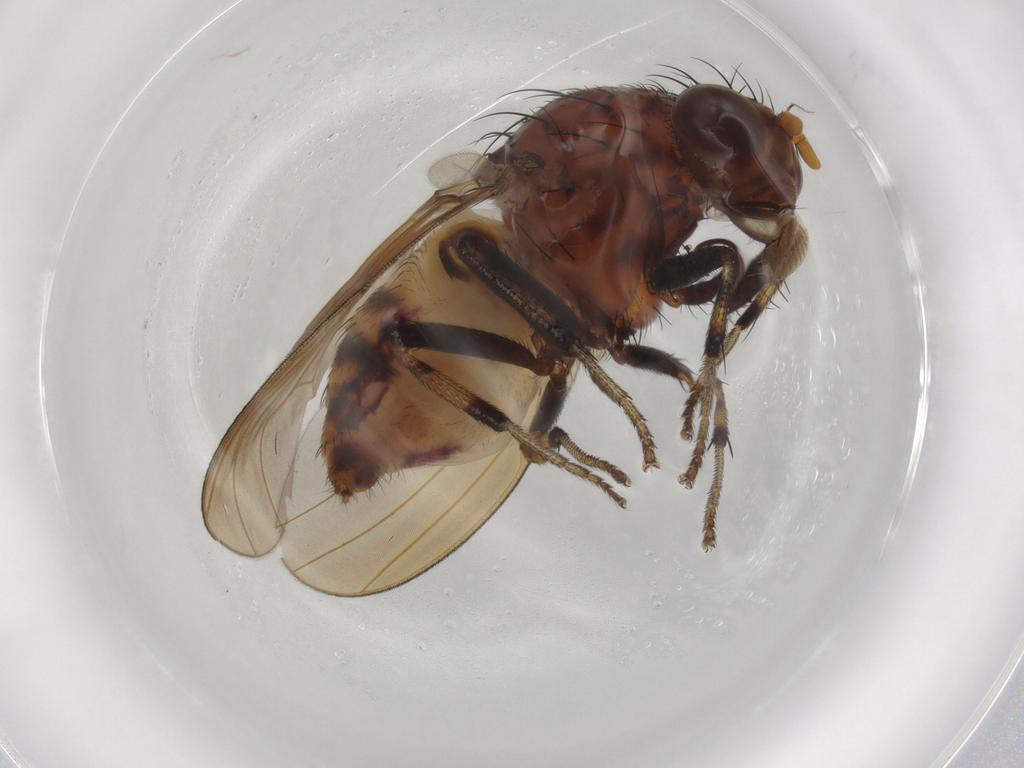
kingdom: Animalia
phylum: Arthropoda
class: Insecta
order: Diptera
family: Lauxaniidae
